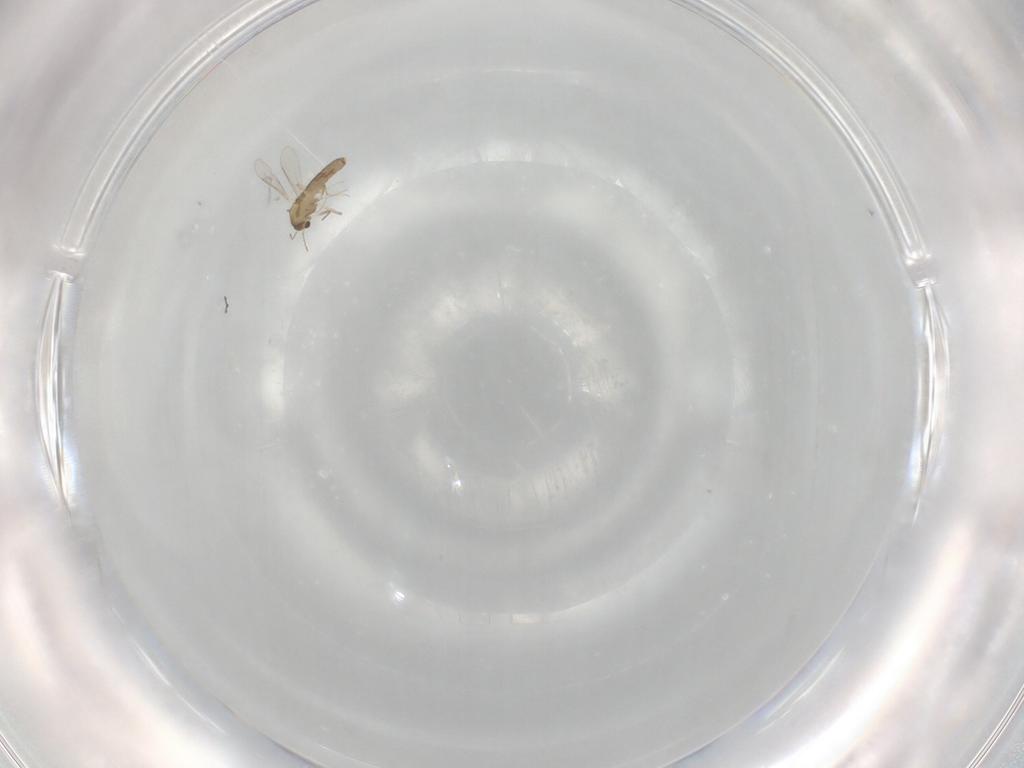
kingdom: Animalia
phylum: Arthropoda
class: Insecta
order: Diptera
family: Chironomidae
